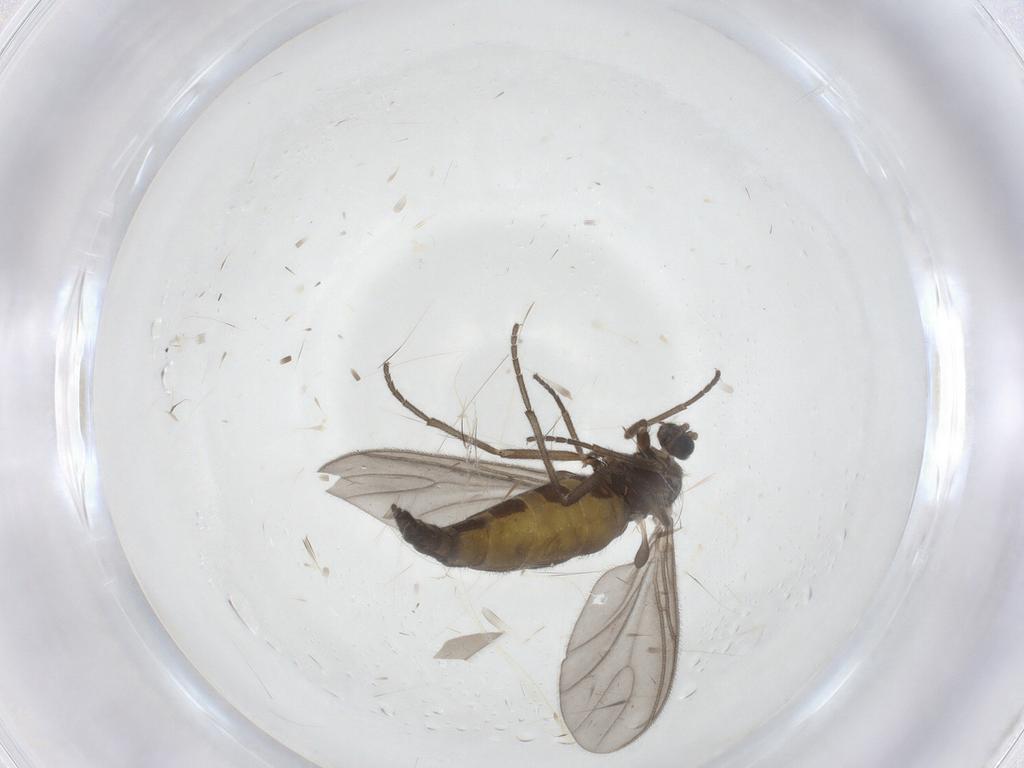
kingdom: Animalia
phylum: Arthropoda
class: Insecta
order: Diptera
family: Sciaridae
